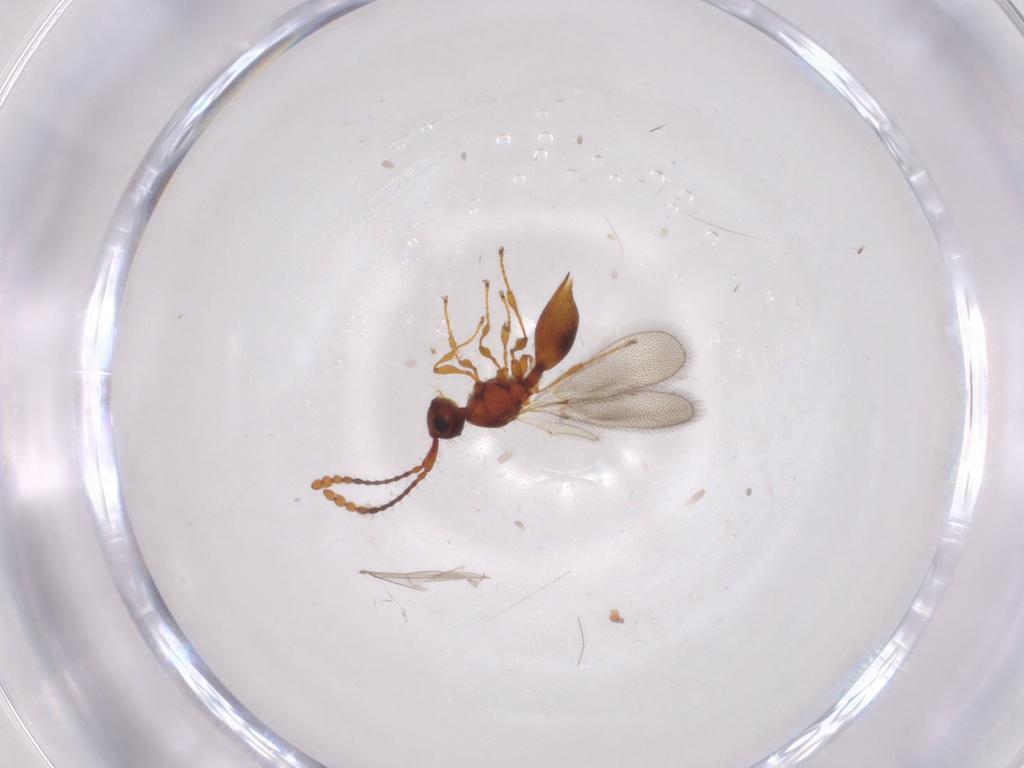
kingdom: Animalia
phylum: Arthropoda
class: Insecta
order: Hymenoptera
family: Diapriidae
